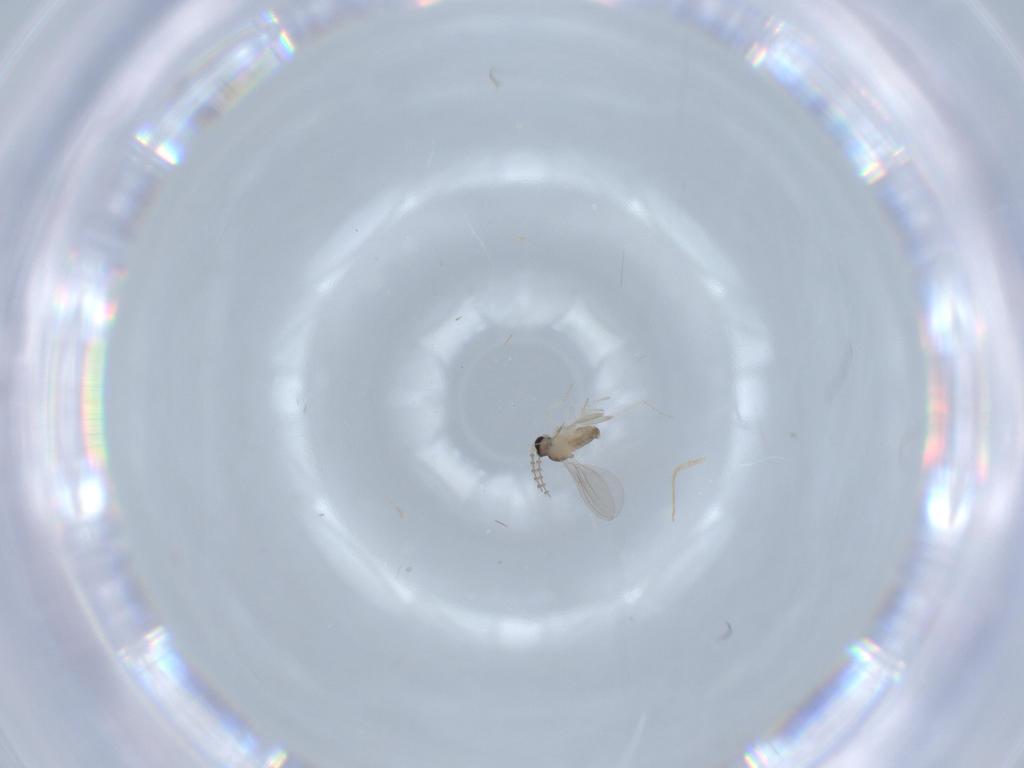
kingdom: Animalia
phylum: Arthropoda
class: Insecta
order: Diptera
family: Cecidomyiidae
